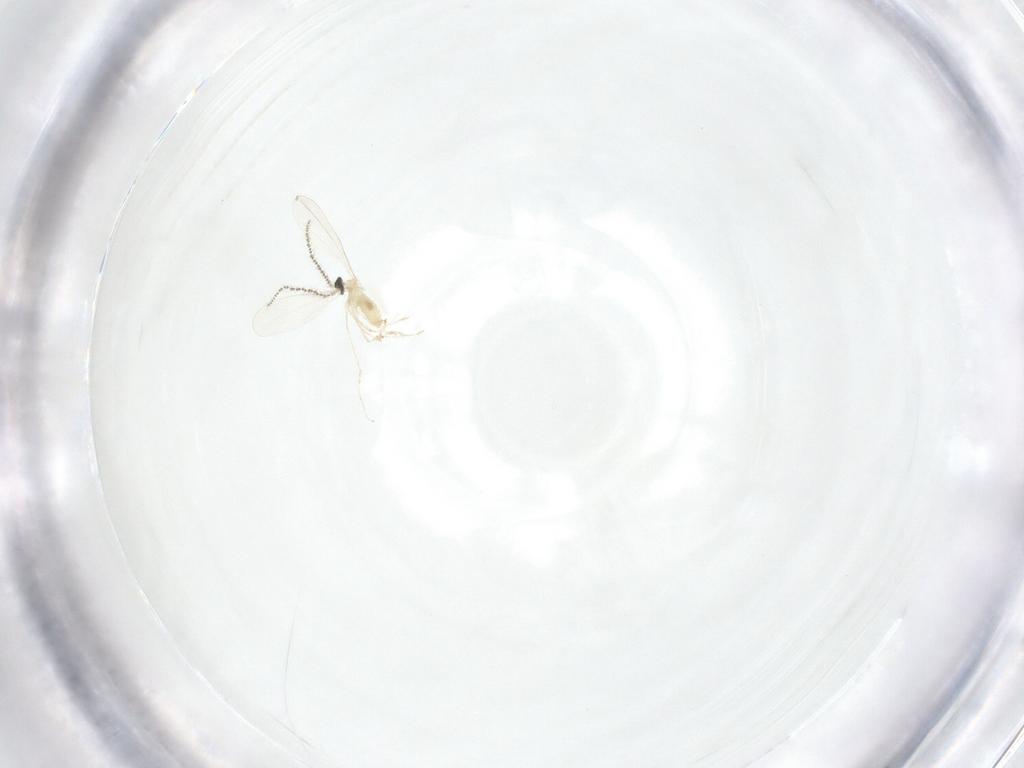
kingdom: Animalia
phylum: Arthropoda
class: Insecta
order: Diptera
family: Cecidomyiidae
